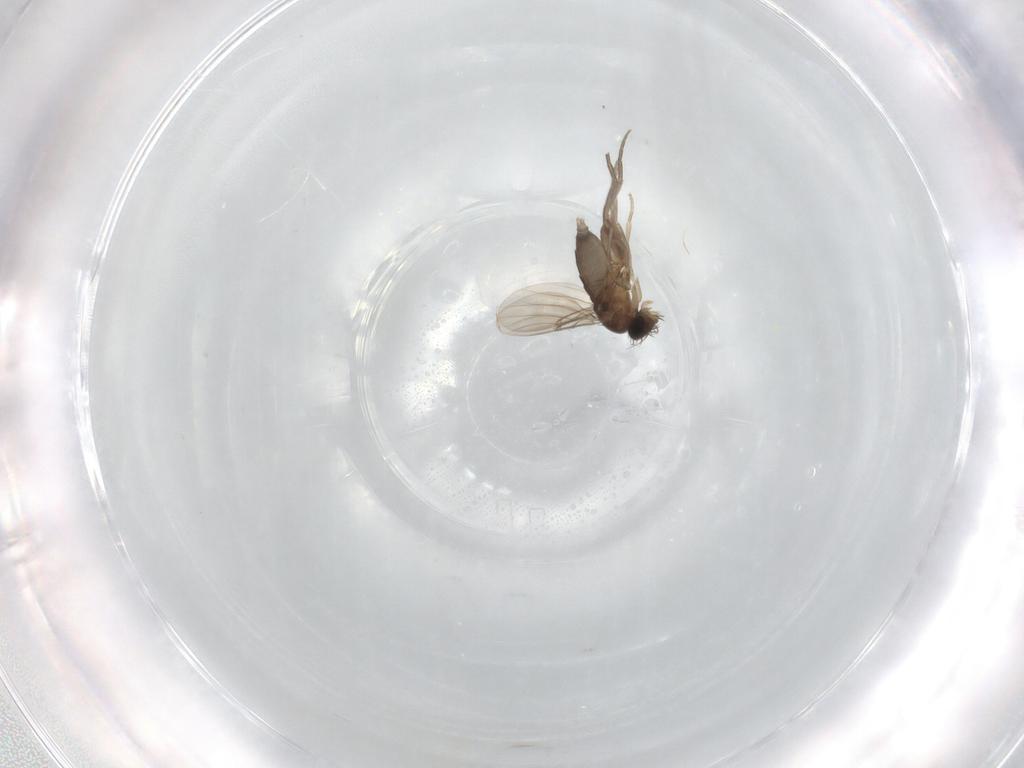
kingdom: Animalia
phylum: Arthropoda
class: Insecta
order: Diptera
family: Phoridae
